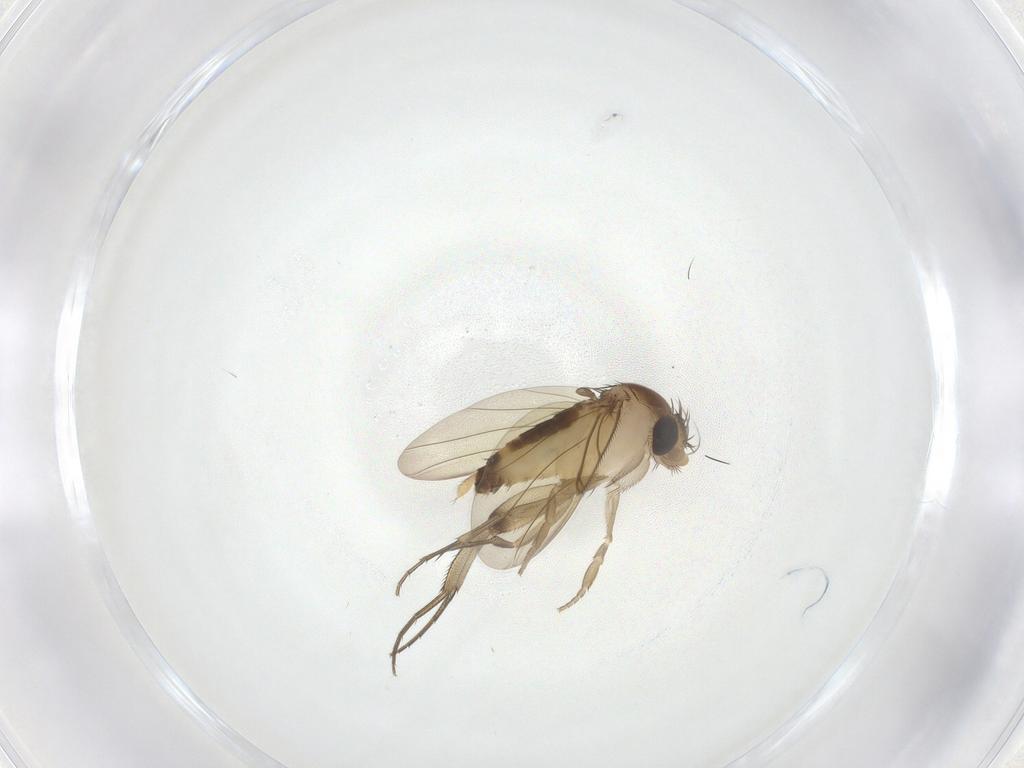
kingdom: Animalia
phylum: Arthropoda
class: Insecta
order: Diptera
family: Phoridae
